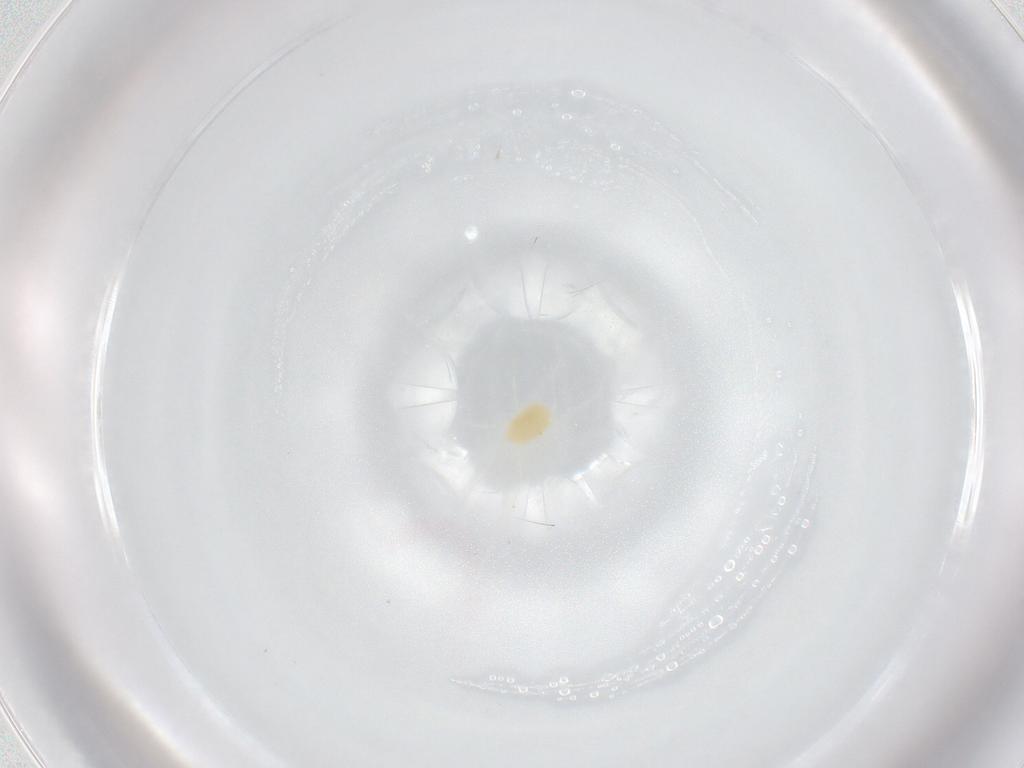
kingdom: Animalia
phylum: Arthropoda
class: Arachnida
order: Trombidiformes
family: Tetranychidae
